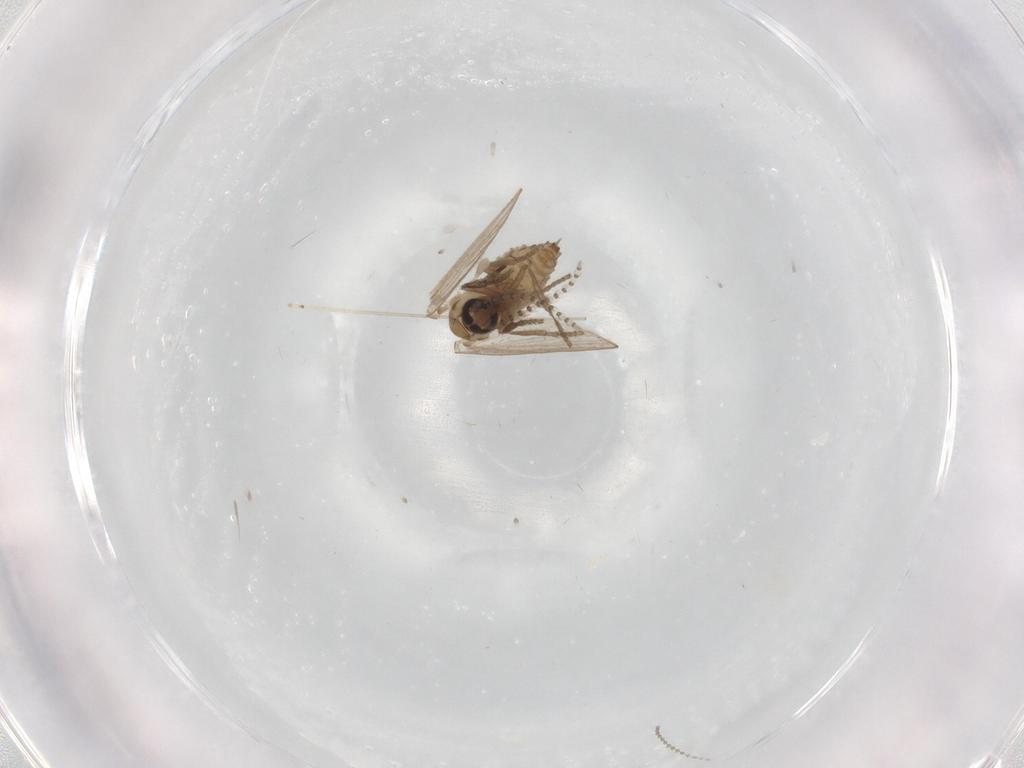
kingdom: Animalia
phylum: Arthropoda
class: Insecta
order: Diptera
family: Psychodidae
